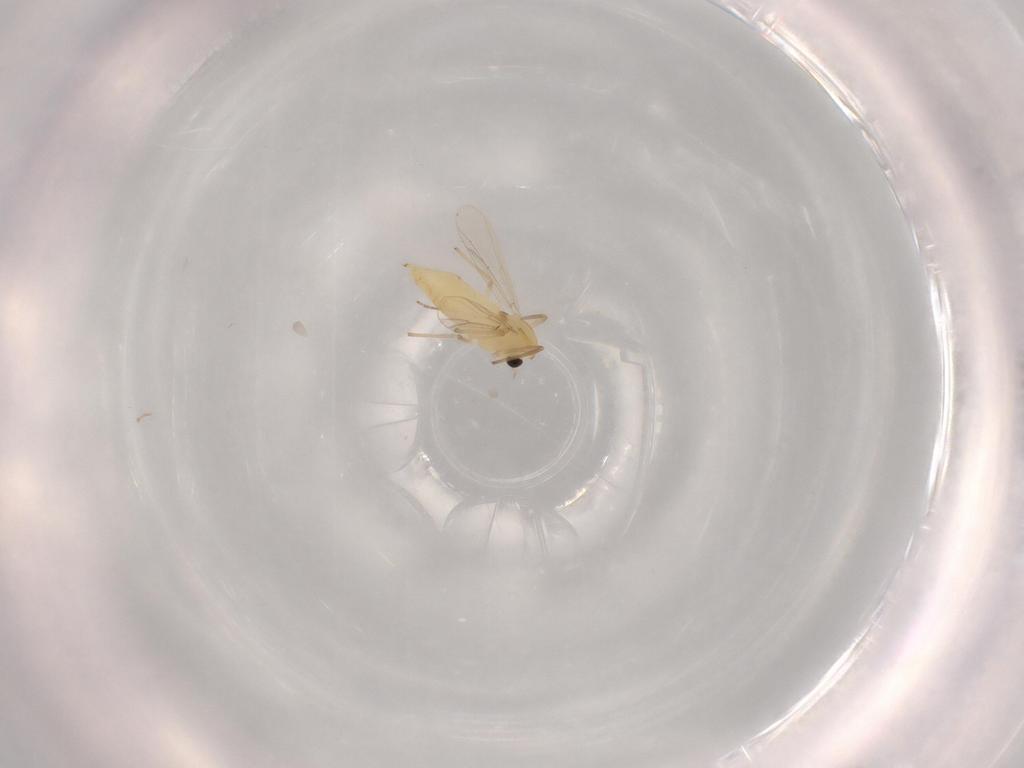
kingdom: Animalia
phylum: Arthropoda
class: Insecta
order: Diptera
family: Chironomidae
